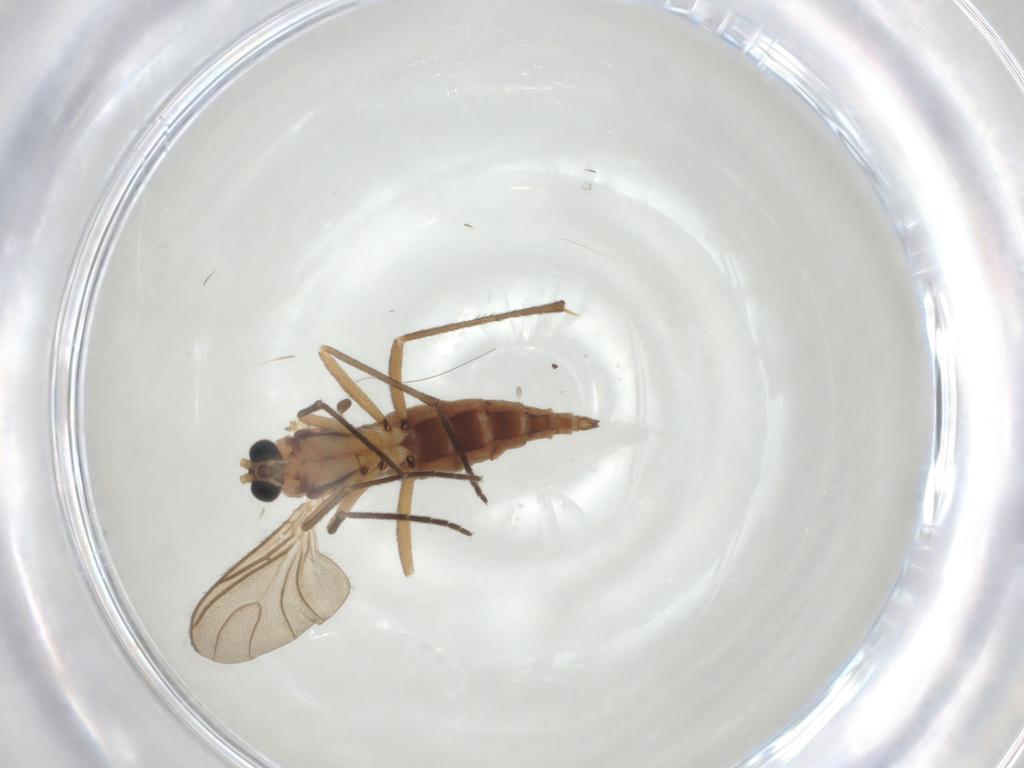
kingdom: Animalia
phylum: Arthropoda
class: Insecta
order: Diptera
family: Sciaridae
